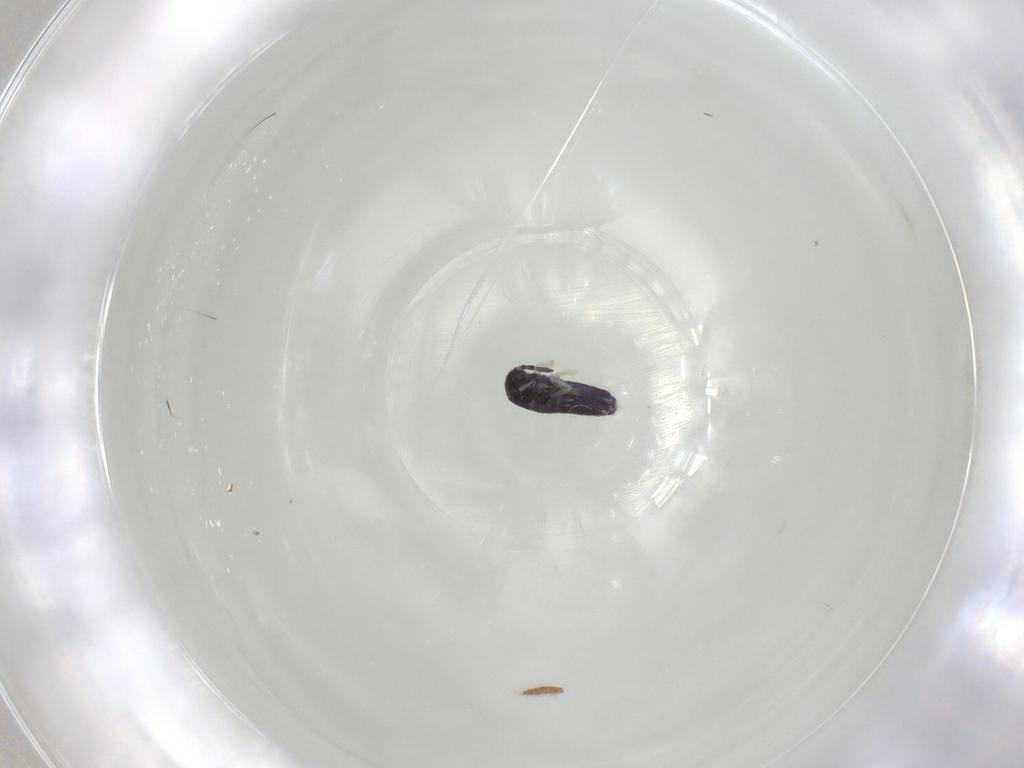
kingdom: Animalia
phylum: Arthropoda
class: Collembola
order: Entomobryomorpha
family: Entomobryidae
